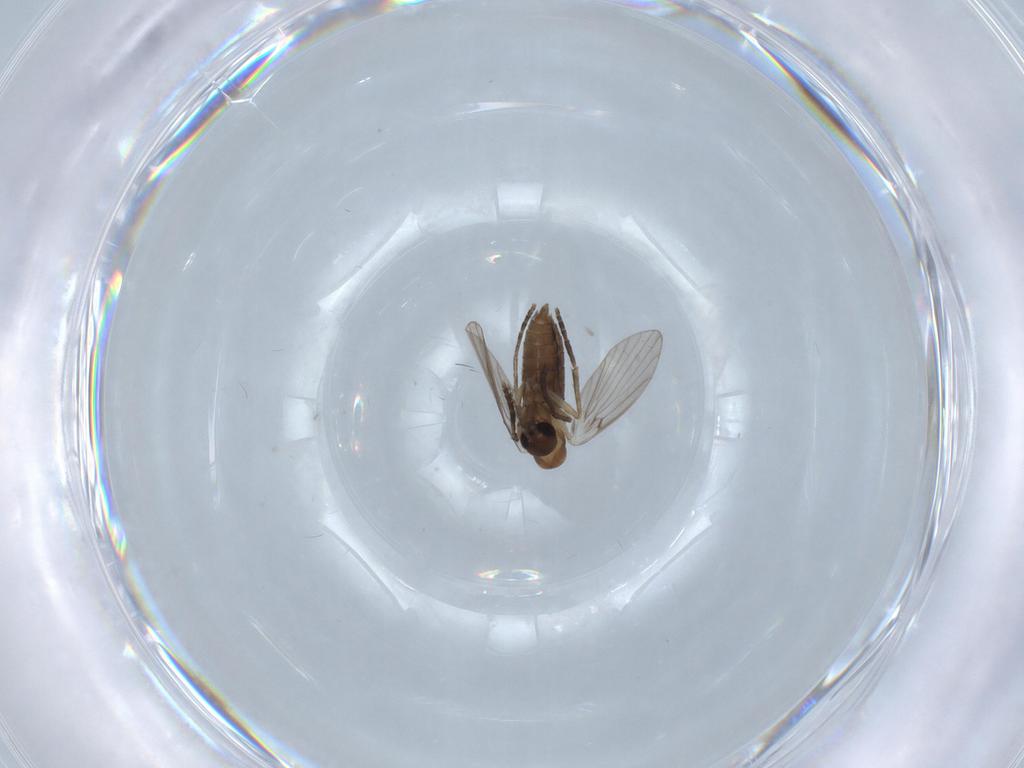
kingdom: Animalia
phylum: Arthropoda
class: Insecta
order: Diptera
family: Psychodidae
